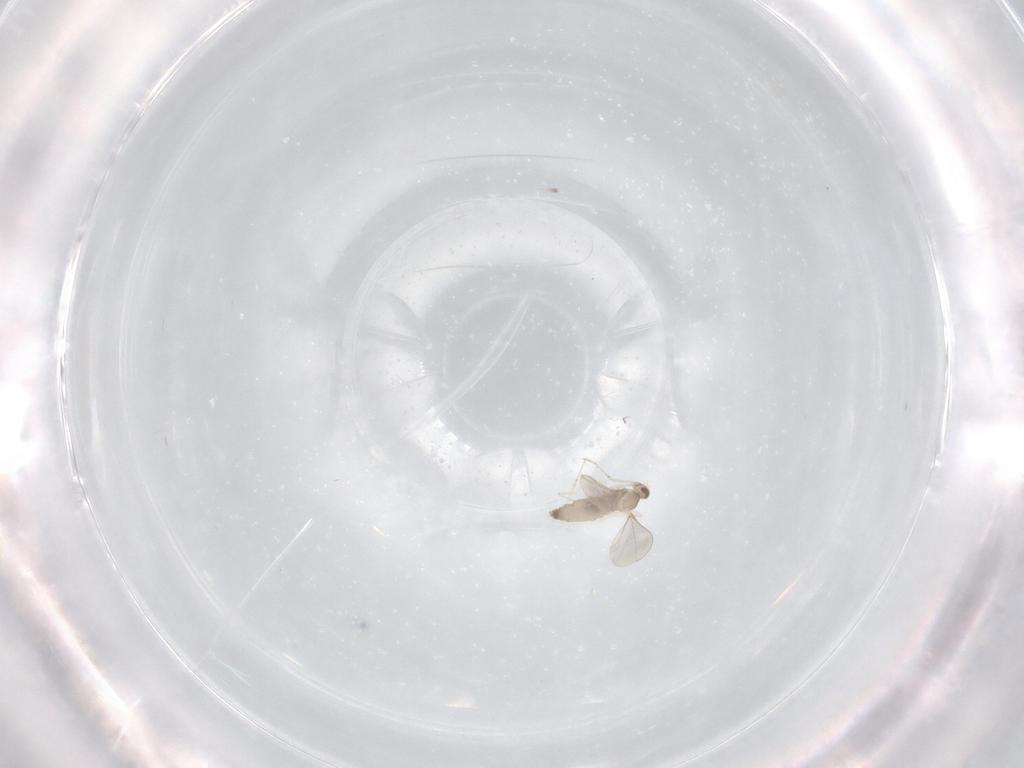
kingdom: Animalia
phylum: Arthropoda
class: Insecta
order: Diptera
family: Cecidomyiidae
